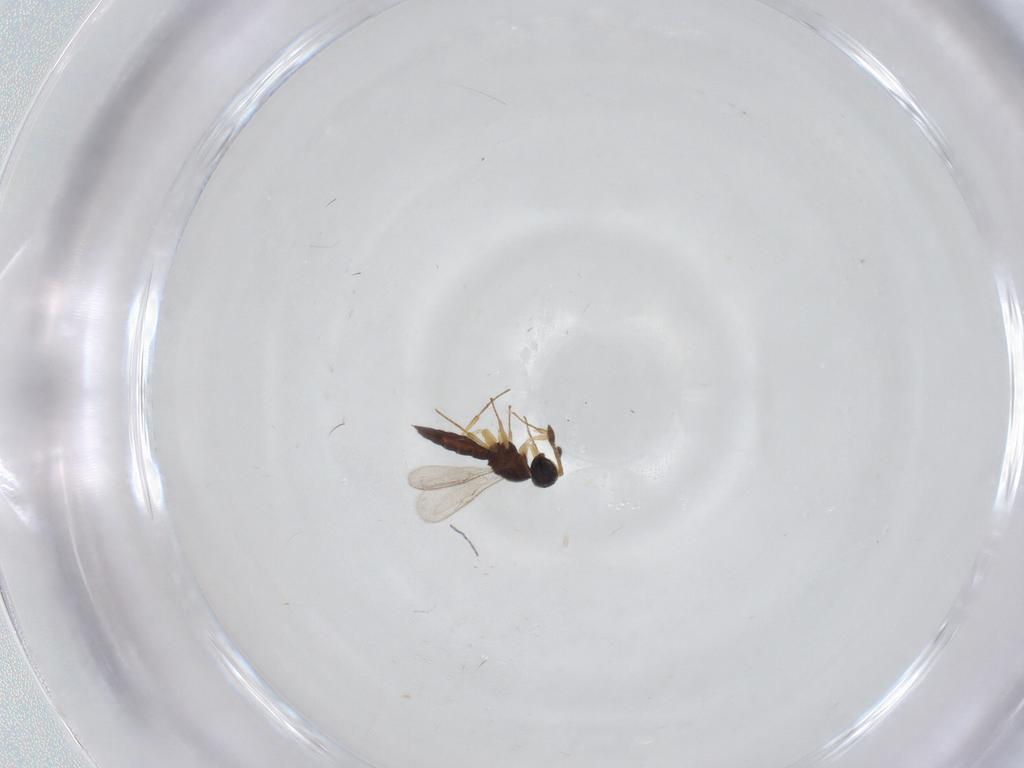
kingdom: Animalia
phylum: Arthropoda
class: Insecta
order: Hymenoptera
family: Scelionidae
